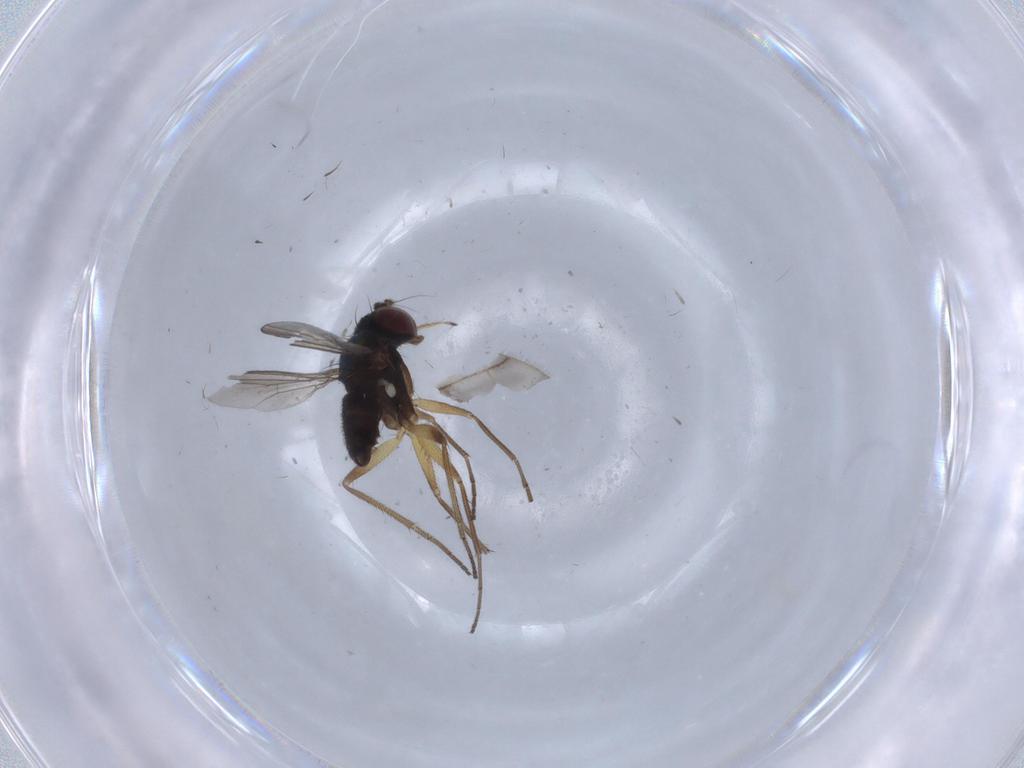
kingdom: Animalia
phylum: Arthropoda
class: Insecta
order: Diptera
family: Dolichopodidae
